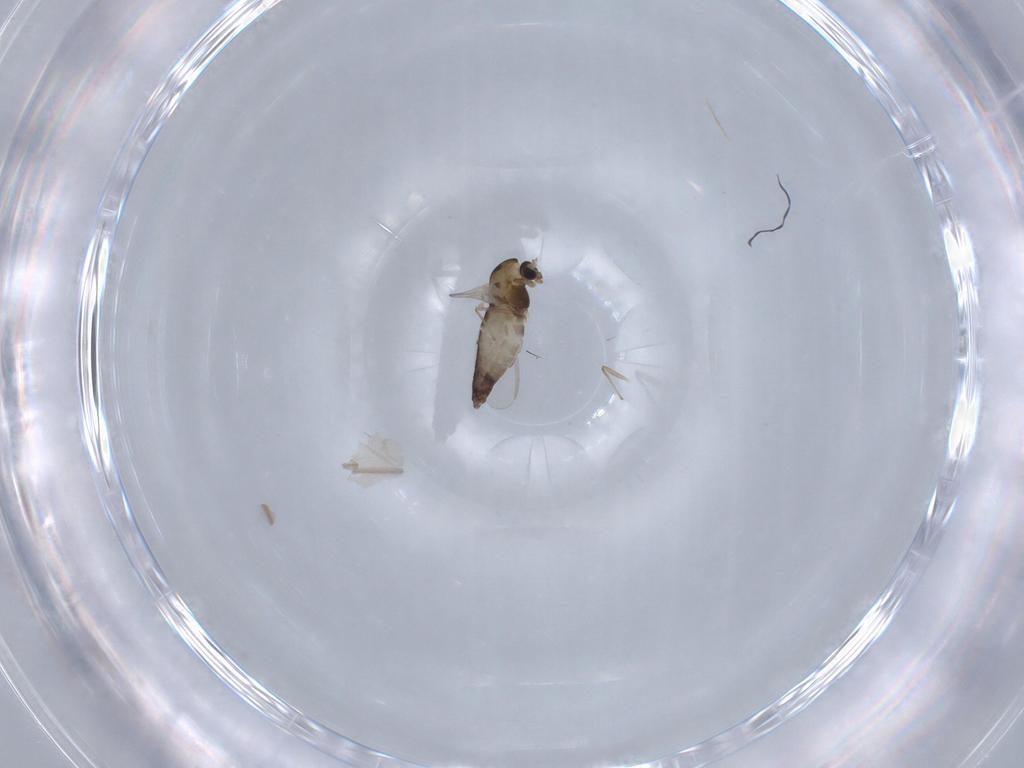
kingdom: Animalia
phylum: Arthropoda
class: Insecta
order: Diptera
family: Chironomidae
